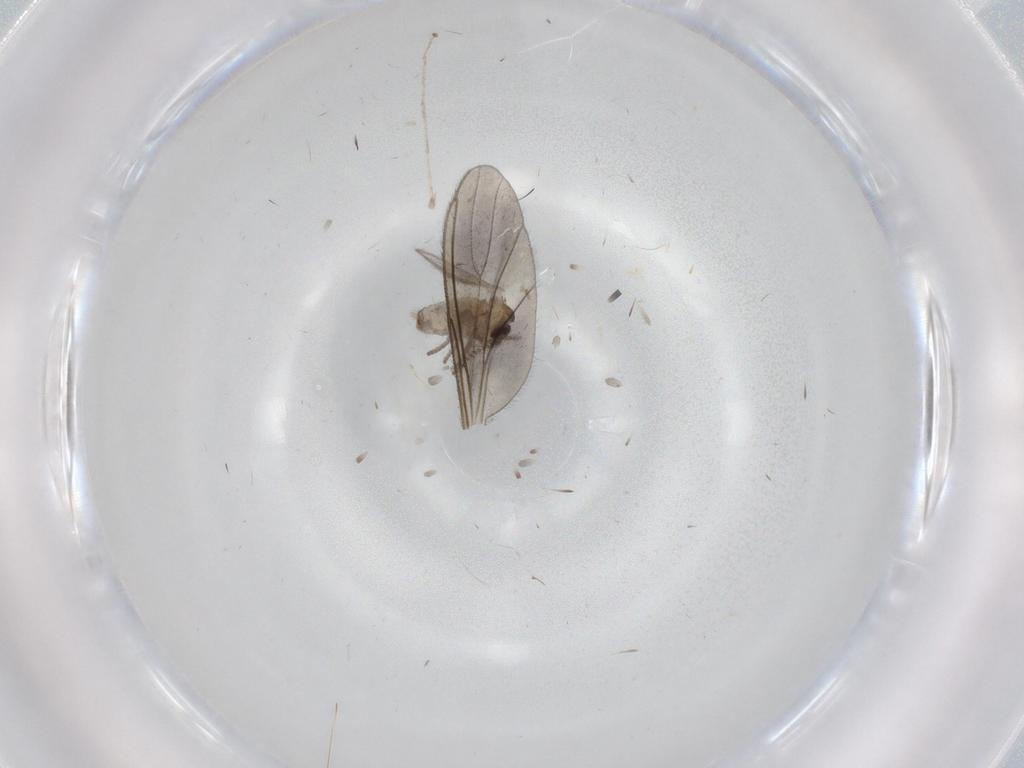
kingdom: Animalia
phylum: Arthropoda
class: Insecta
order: Diptera
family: Sciaridae
